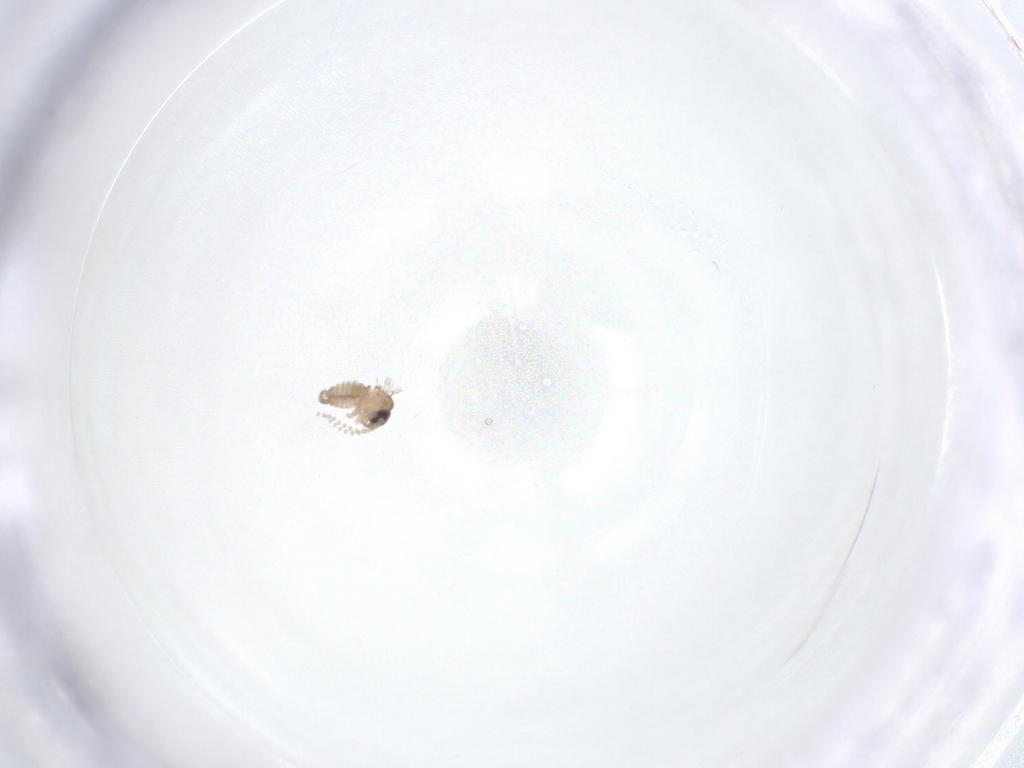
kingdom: Animalia
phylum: Arthropoda
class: Insecta
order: Diptera
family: Psychodidae
